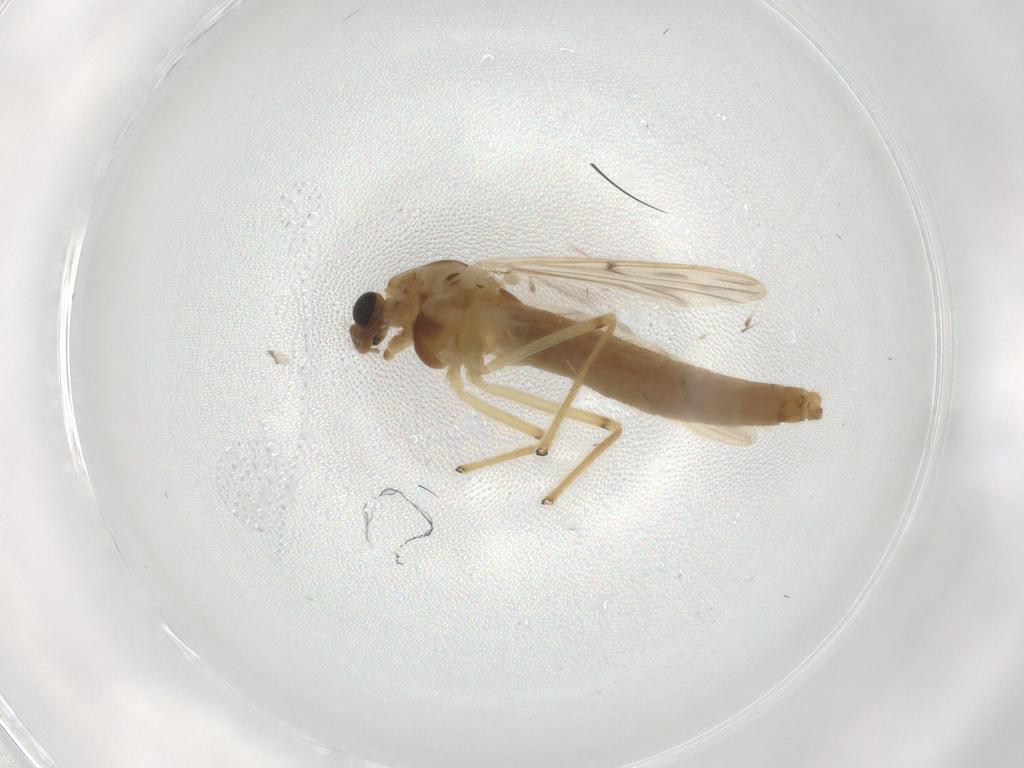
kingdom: Animalia
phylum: Arthropoda
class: Insecta
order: Diptera
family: Chironomidae
